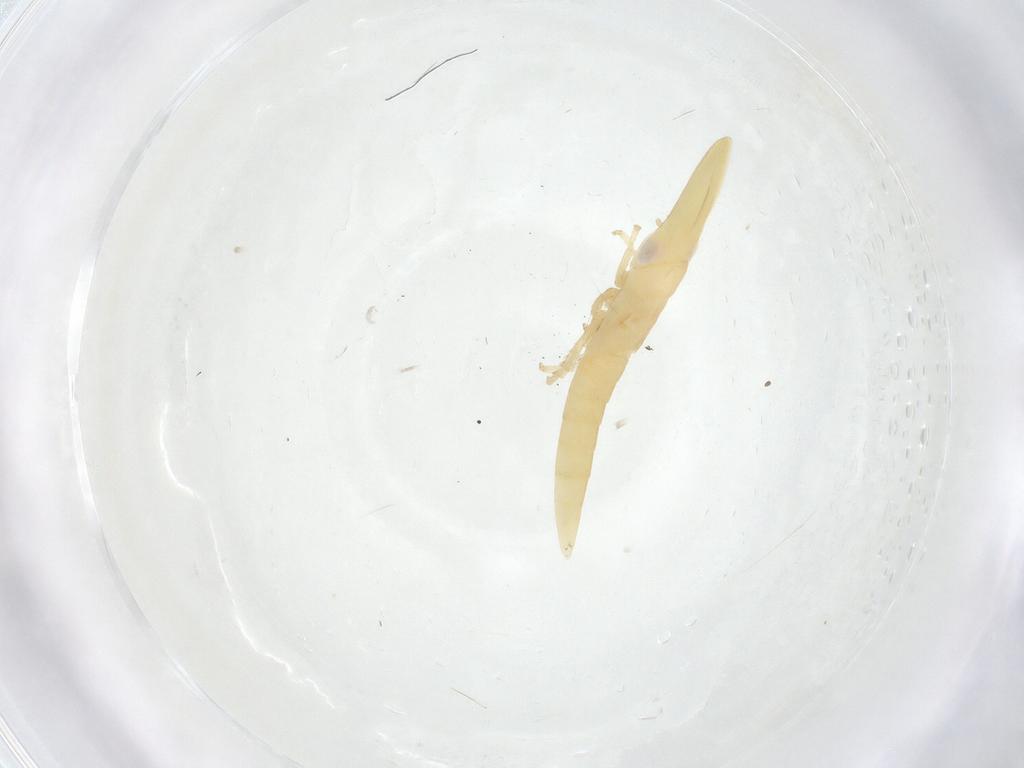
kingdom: Animalia
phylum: Arthropoda
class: Insecta
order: Hemiptera
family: Cicadellidae
